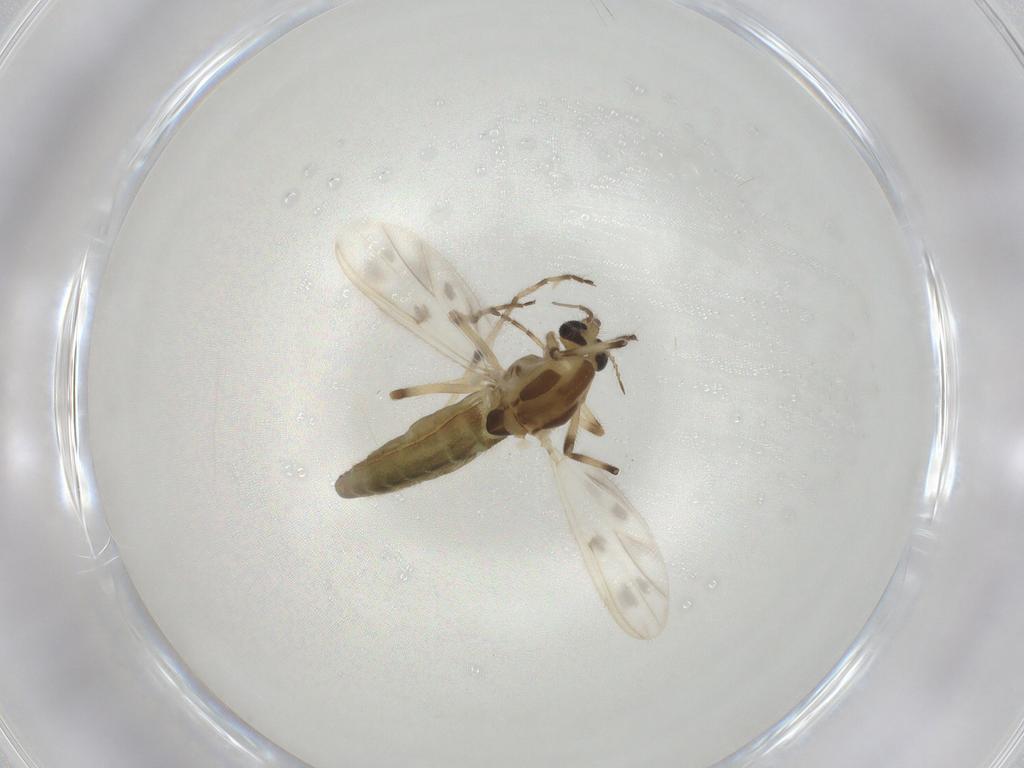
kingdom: Animalia
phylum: Arthropoda
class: Insecta
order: Diptera
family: Chironomidae
